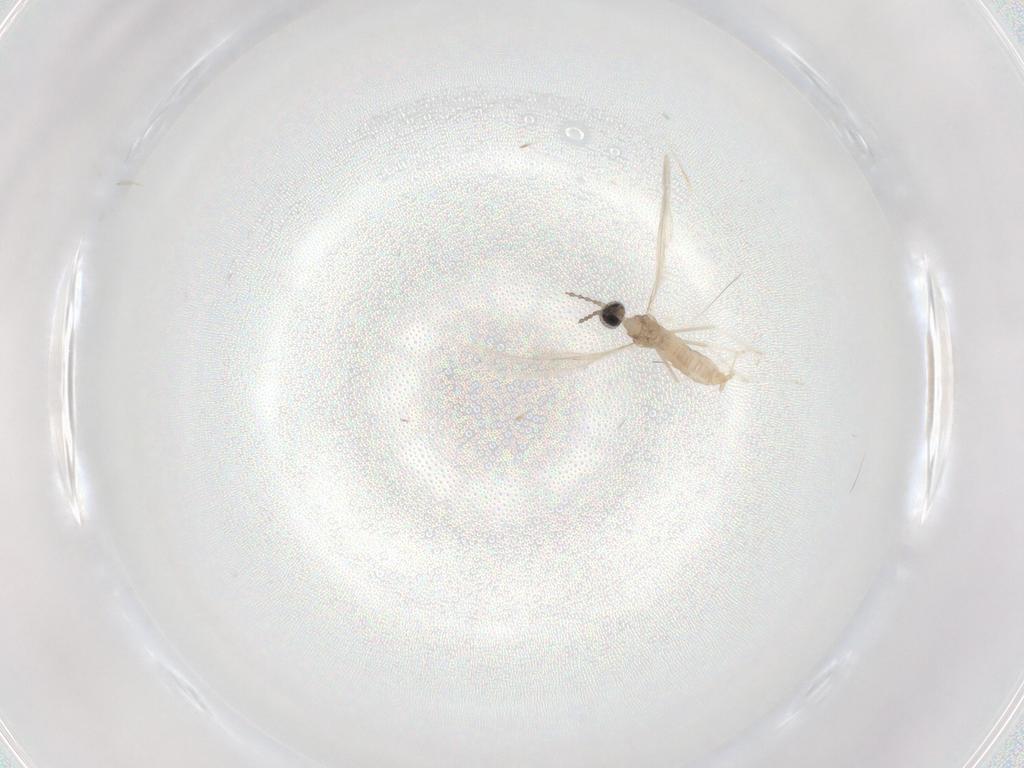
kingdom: Animalia
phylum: Arthropoda
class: Insecta
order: Diptera
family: Cecidomyiidae
